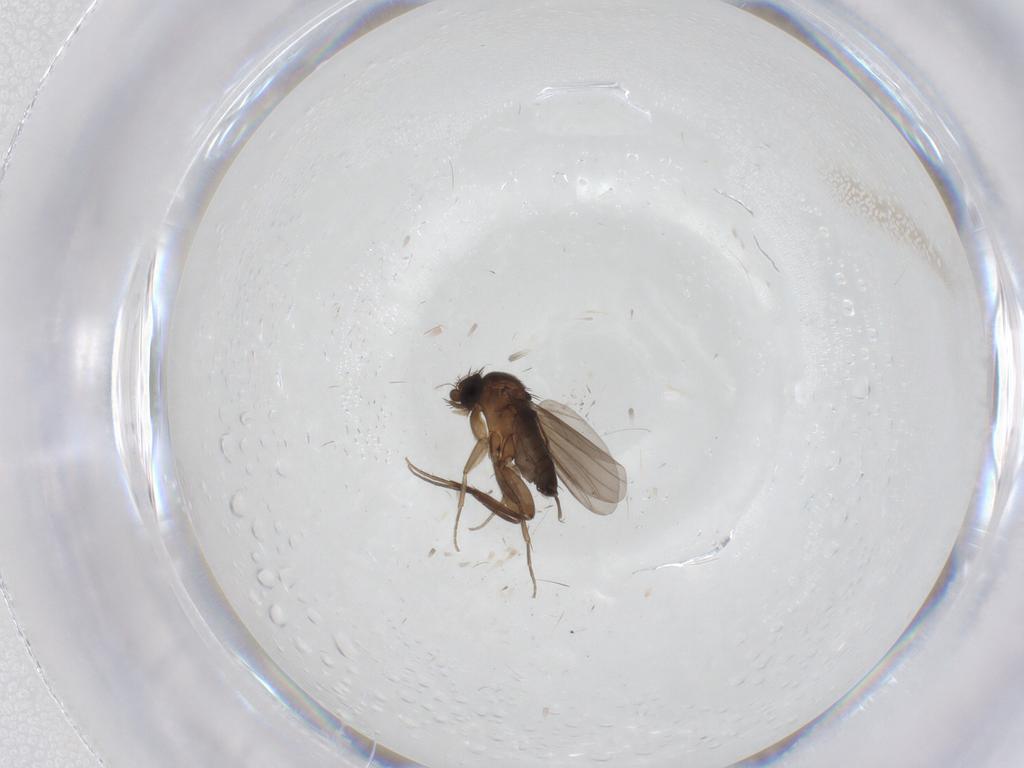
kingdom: Animalia
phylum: Arthropoda
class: Insecta
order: Diptera
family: Phoridae
